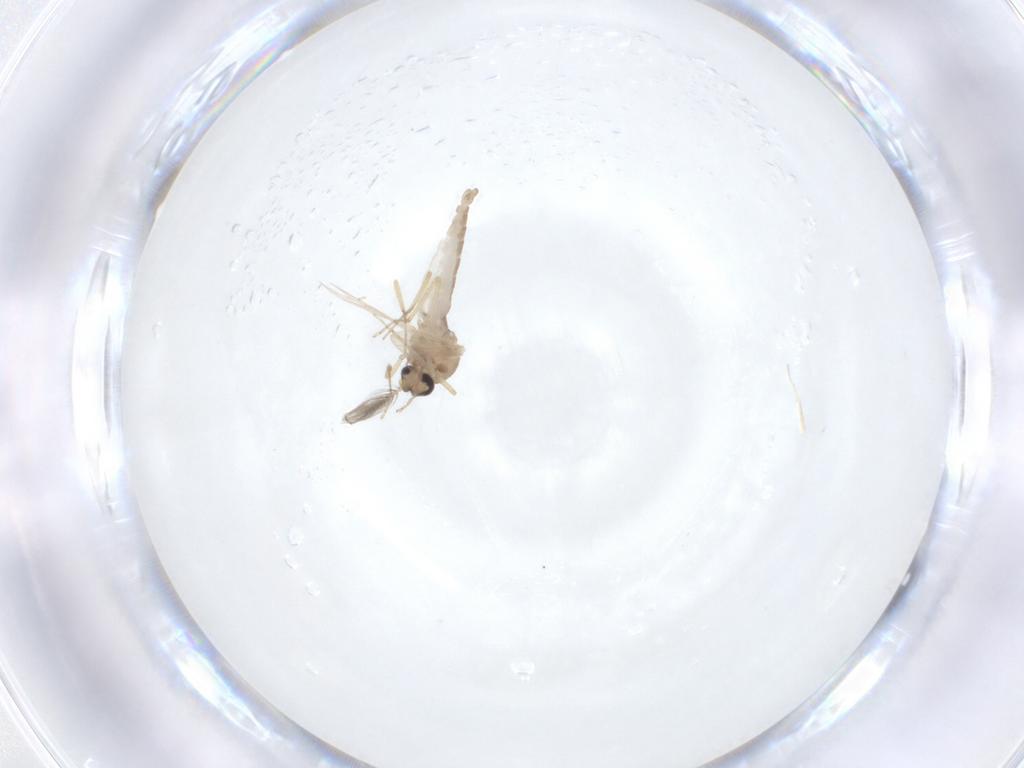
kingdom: Animalia
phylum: Arthropoda
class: Insecta
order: Diptera
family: Ceratopogonidae
